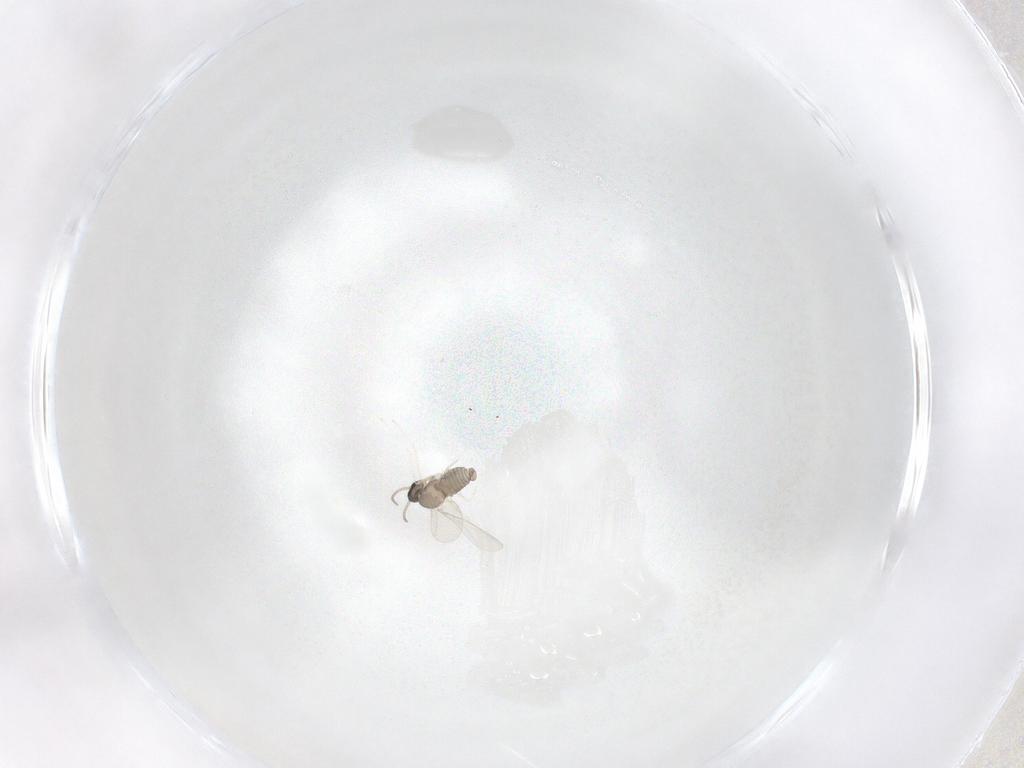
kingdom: Animalia
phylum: Arthropoda
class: Insecta
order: Diptera
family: Cecidomyiidae
